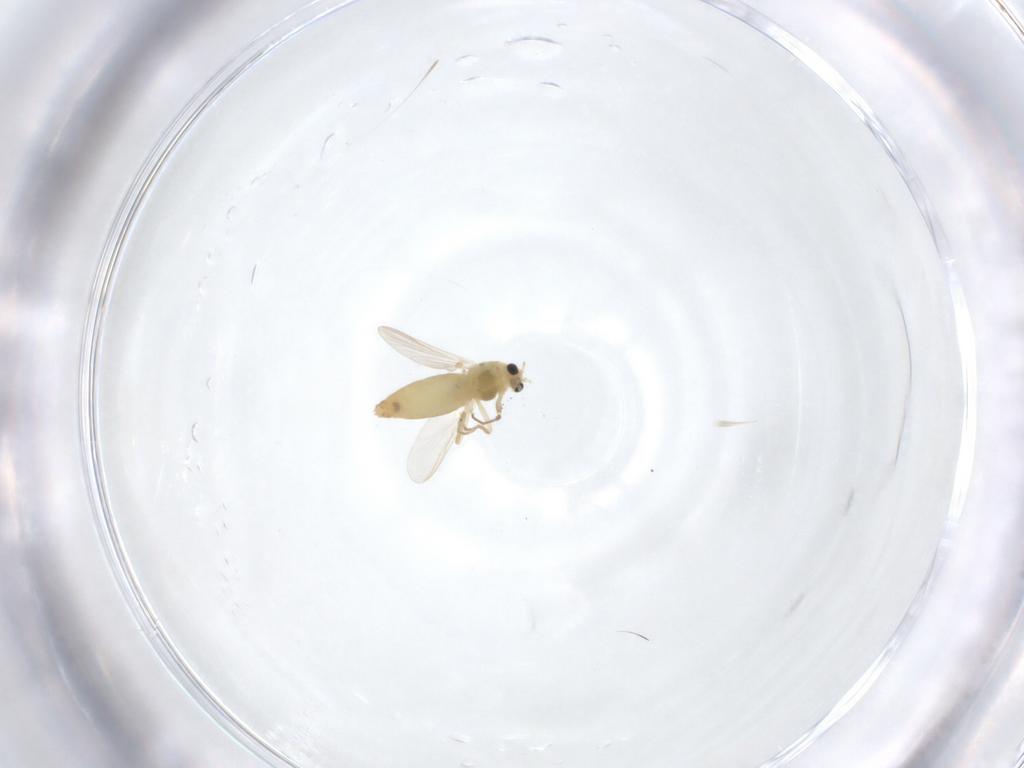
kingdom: Animalia
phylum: Arthropoda
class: Insecta
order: Diptera
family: Chironomidae
